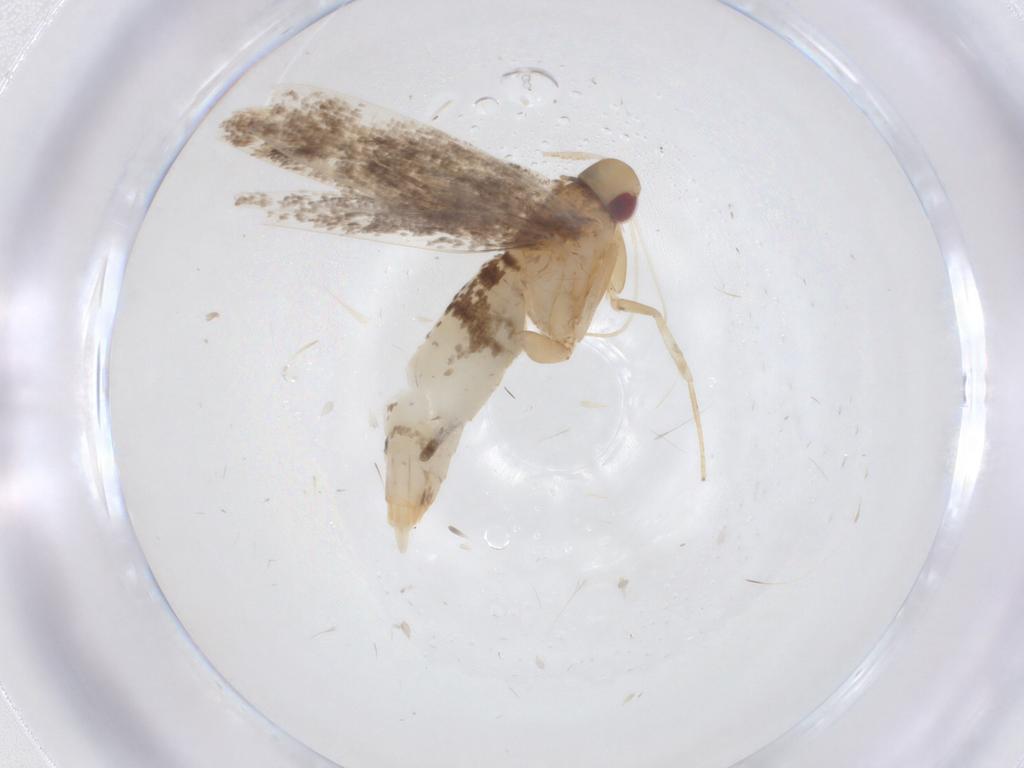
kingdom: Animalia
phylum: Arthropoda
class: Insecta
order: Lepidoptera
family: Cosmopterigidae
